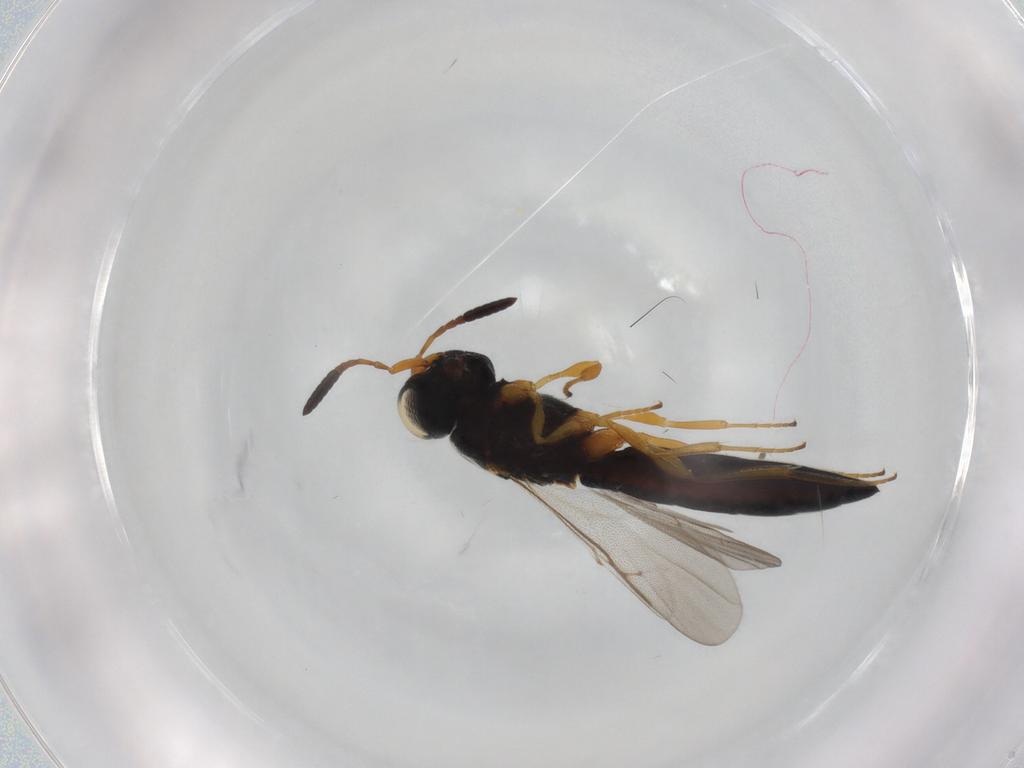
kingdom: Animalia
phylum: Arthropoda
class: Insecta
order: Hymenoptera
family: Scelionidae
